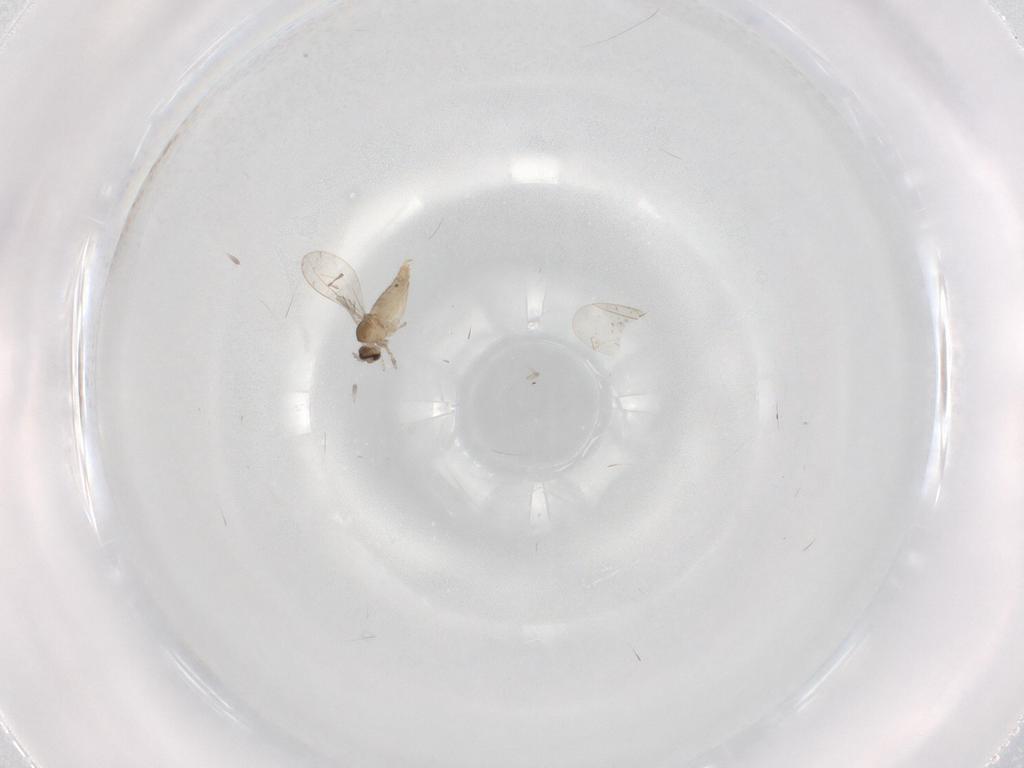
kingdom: Animalia
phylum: Arthropoda
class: Insecta
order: Diptera
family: Cecidomyiidae
